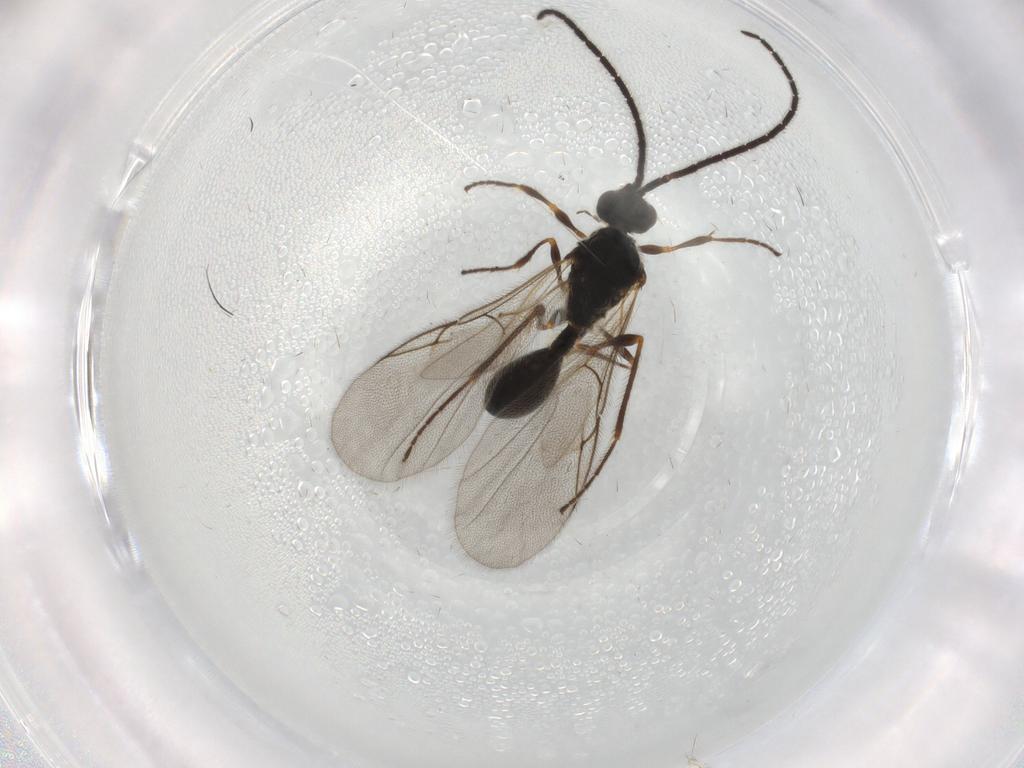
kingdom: Animalia
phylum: Arthropoda
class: Insecta
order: Hymenoptera
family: Diapriidae
